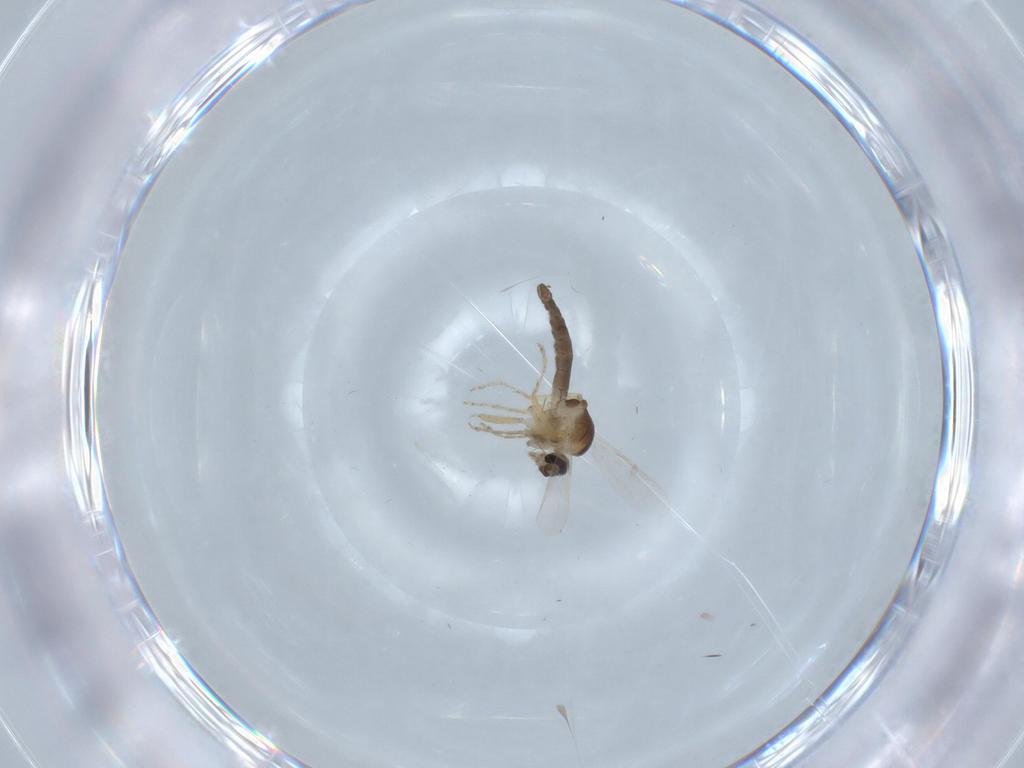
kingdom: Animalia
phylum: Arthropoda
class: Insecta
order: Diptera
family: Ceratopogonidae
